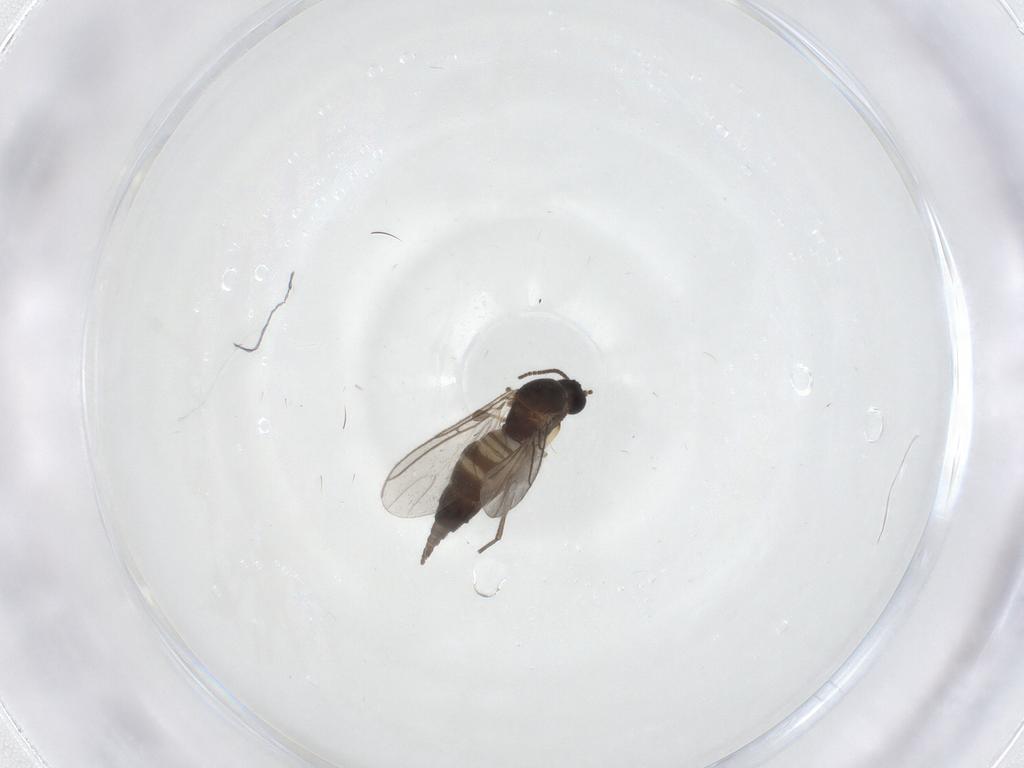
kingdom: Animalia
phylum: Arthropoda
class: Insecta
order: Diptera
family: Sciaridae
